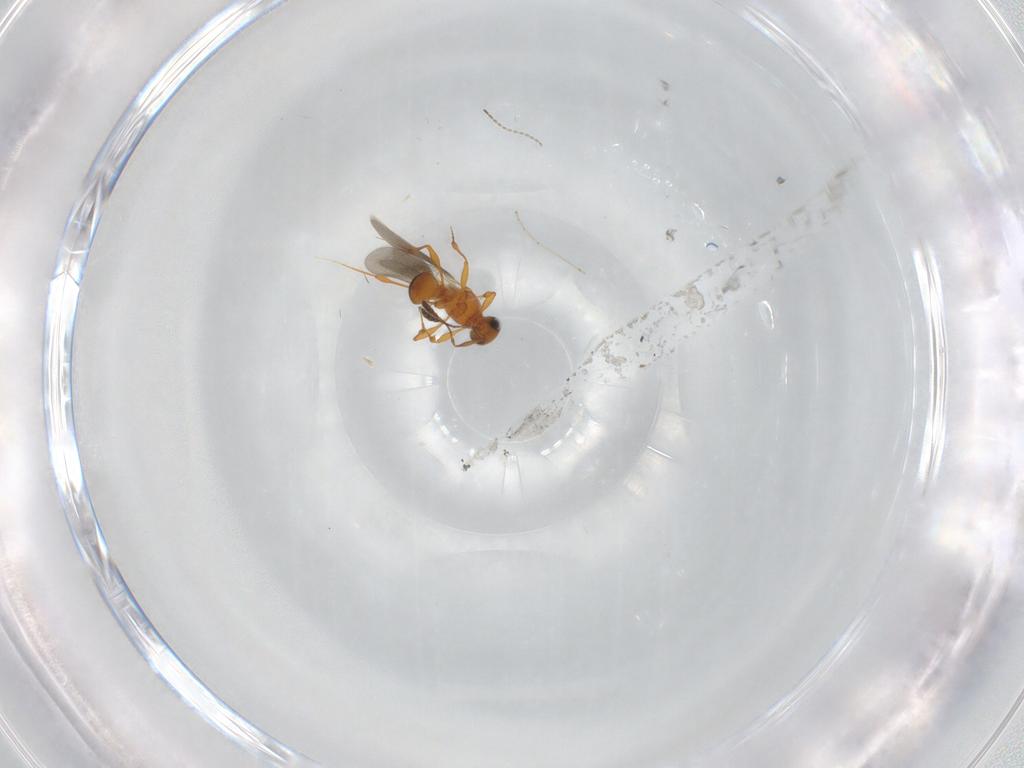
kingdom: Animalia
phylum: Arthropoda
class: Insecta
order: Hymenoptera
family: Platygastridae
